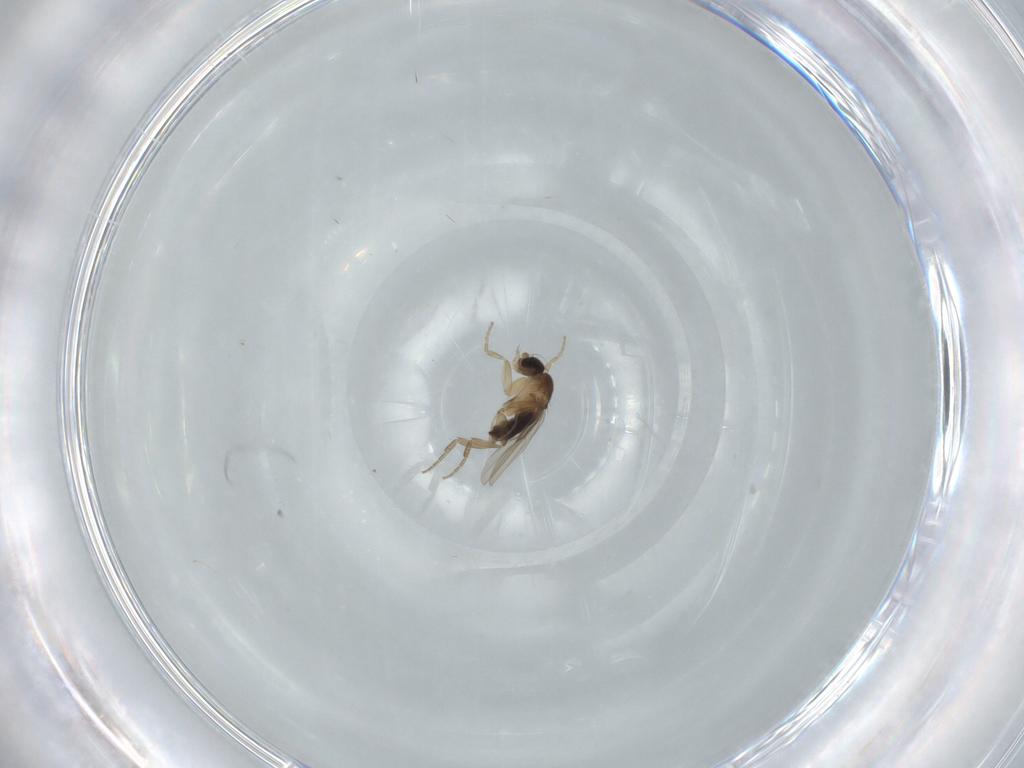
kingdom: Animalia
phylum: Arthropoda
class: Insecta
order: Diptera
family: Phoridae
